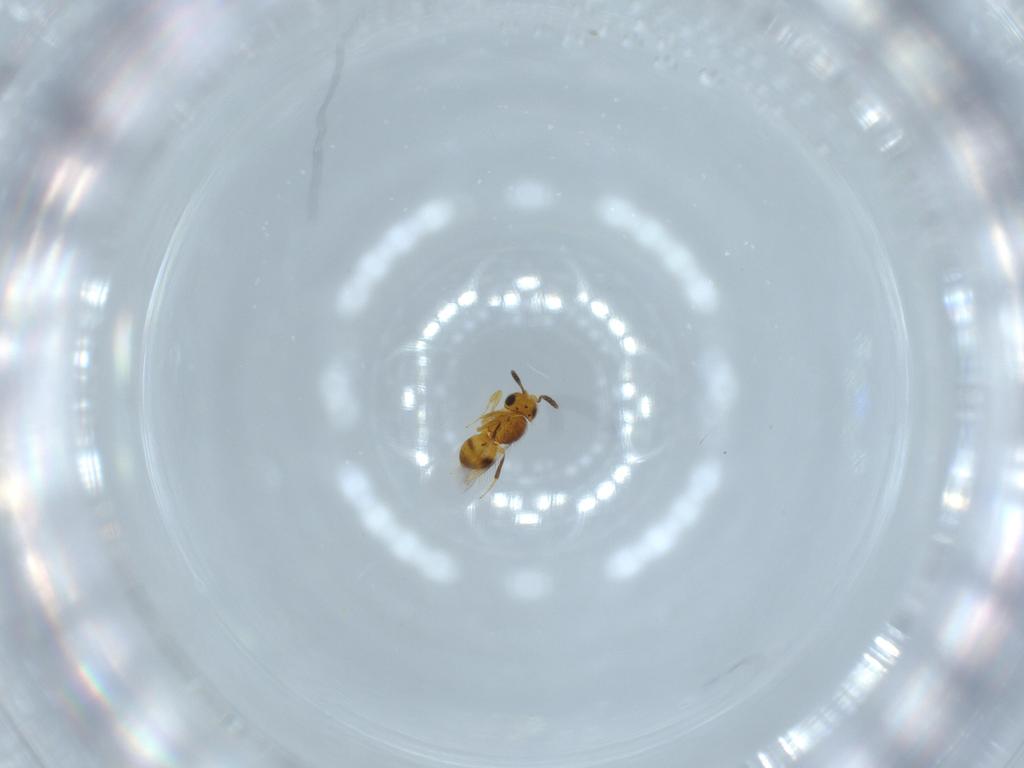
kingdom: Animalia
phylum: Arthropoda
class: Insecta
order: Hymenoptera
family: Scelionidae
